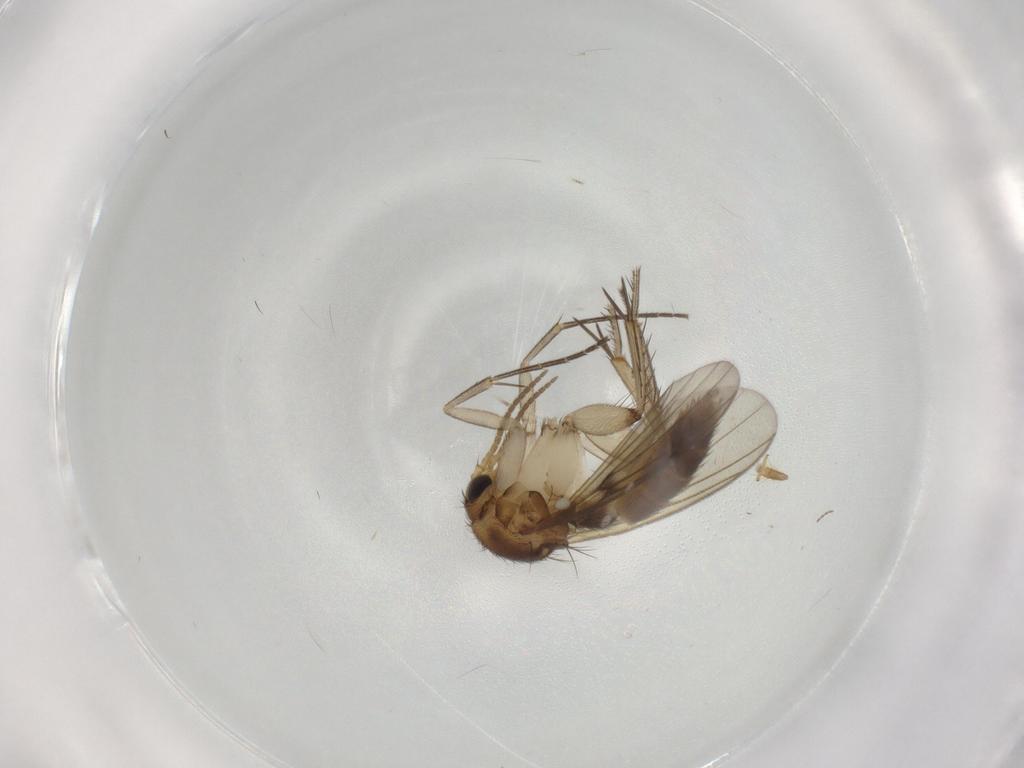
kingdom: Animalia
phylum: Arthropoda
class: Insecta
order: Diptera
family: Mycetophilidae
